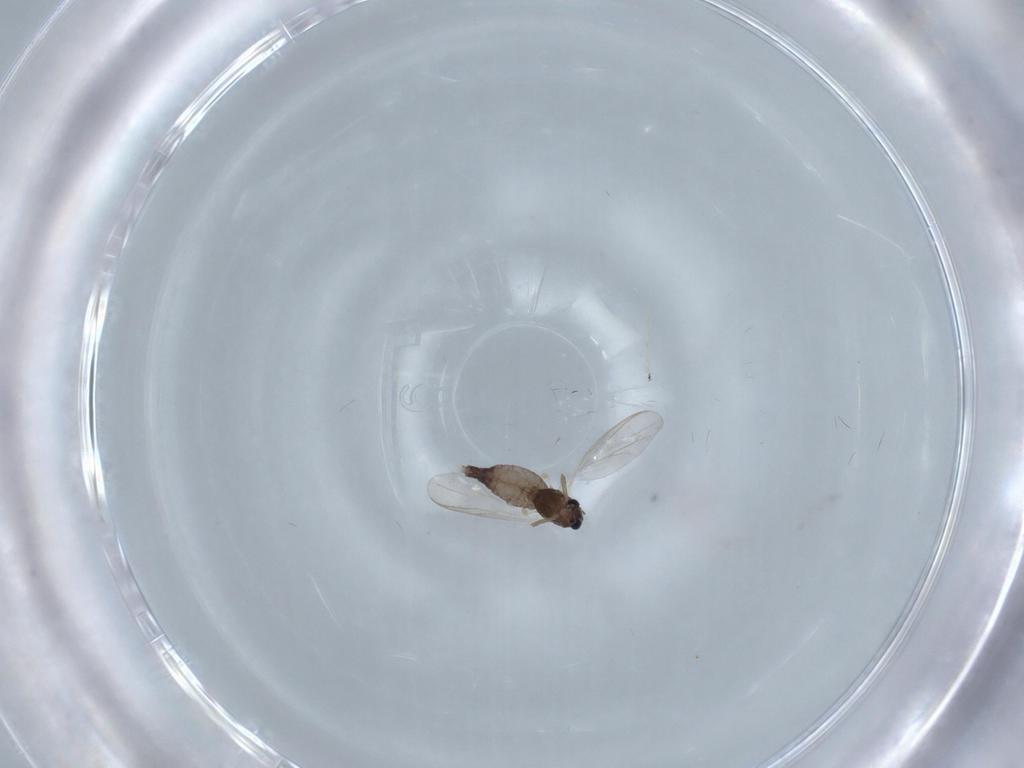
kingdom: Animalia
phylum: Arthropoda
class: Insecta
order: Diptera
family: Chironomidae
